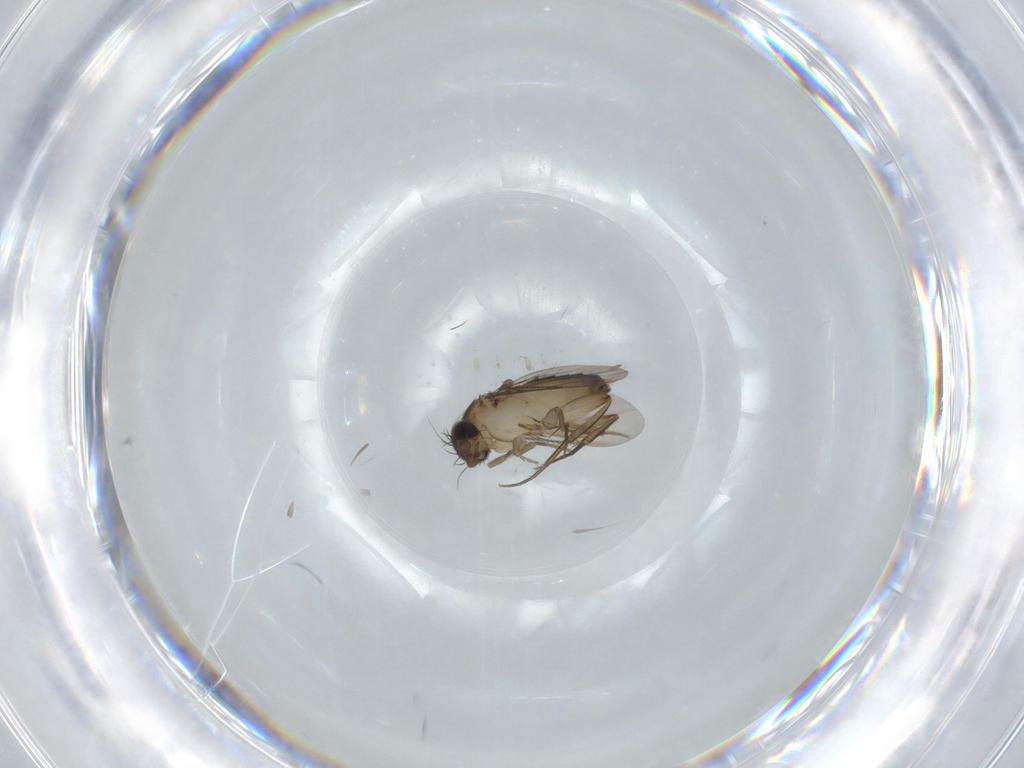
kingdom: Animalia
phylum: Arthropoda
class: Insecta
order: Diptera
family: Phoridae
